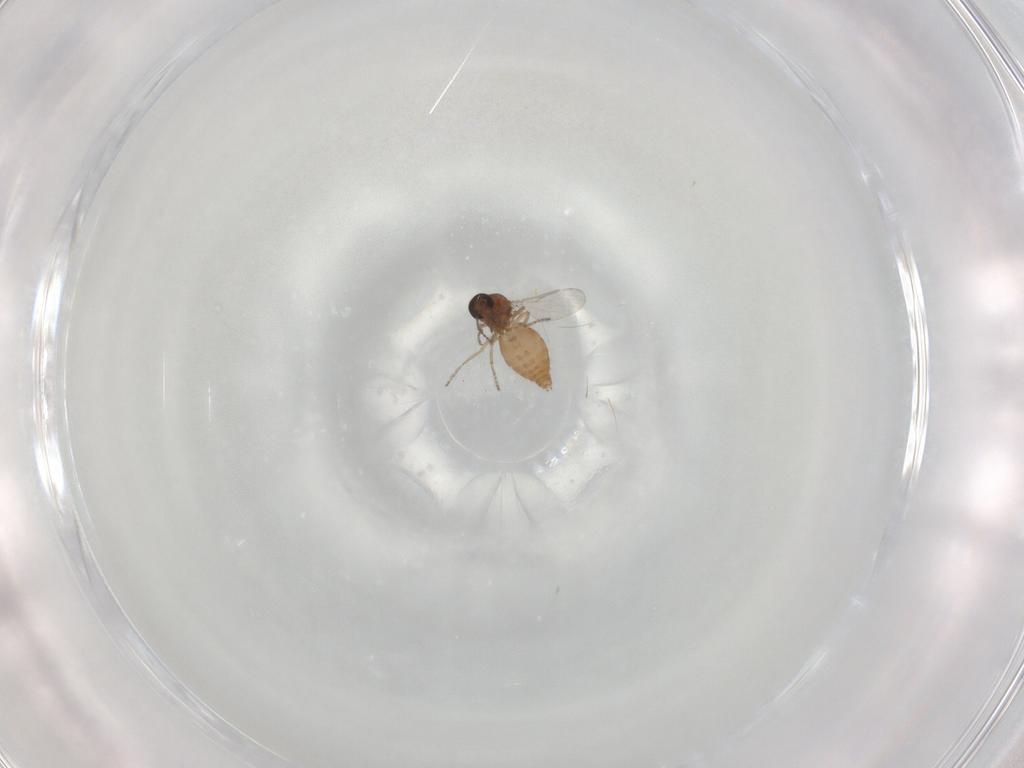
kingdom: Animalia
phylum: Arthropoda
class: Insecta
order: Diptera
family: Ceratopogonidae
